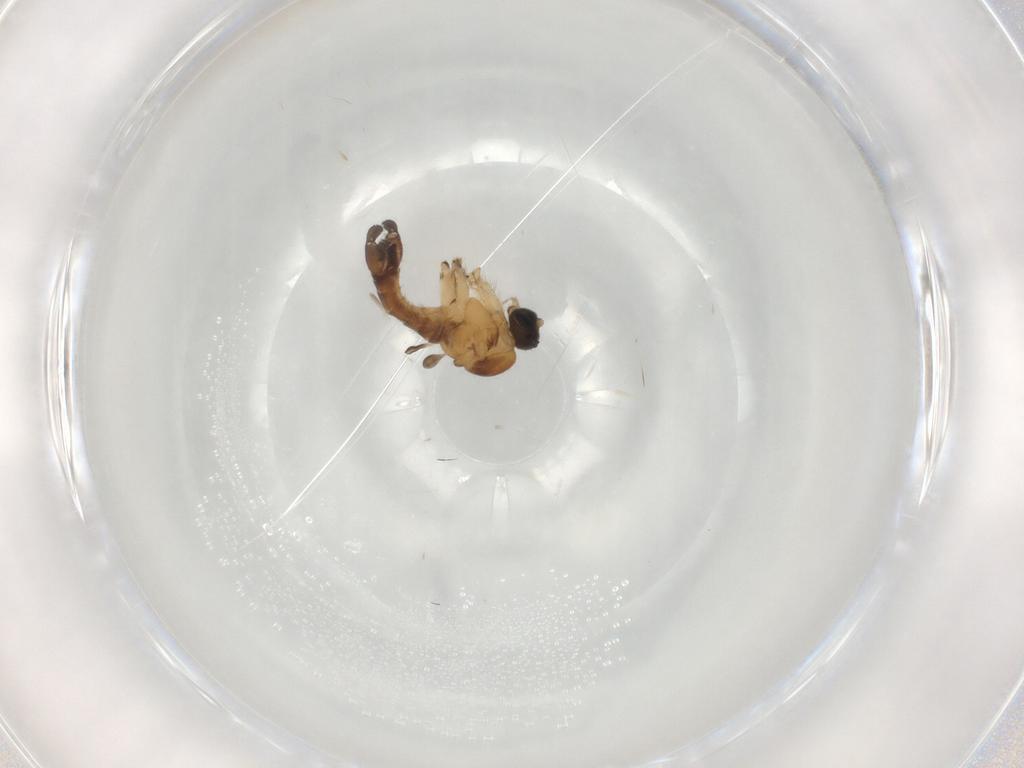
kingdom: Animalia
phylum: Arthropoda
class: Insecta
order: Diptera
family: Sciaridae
